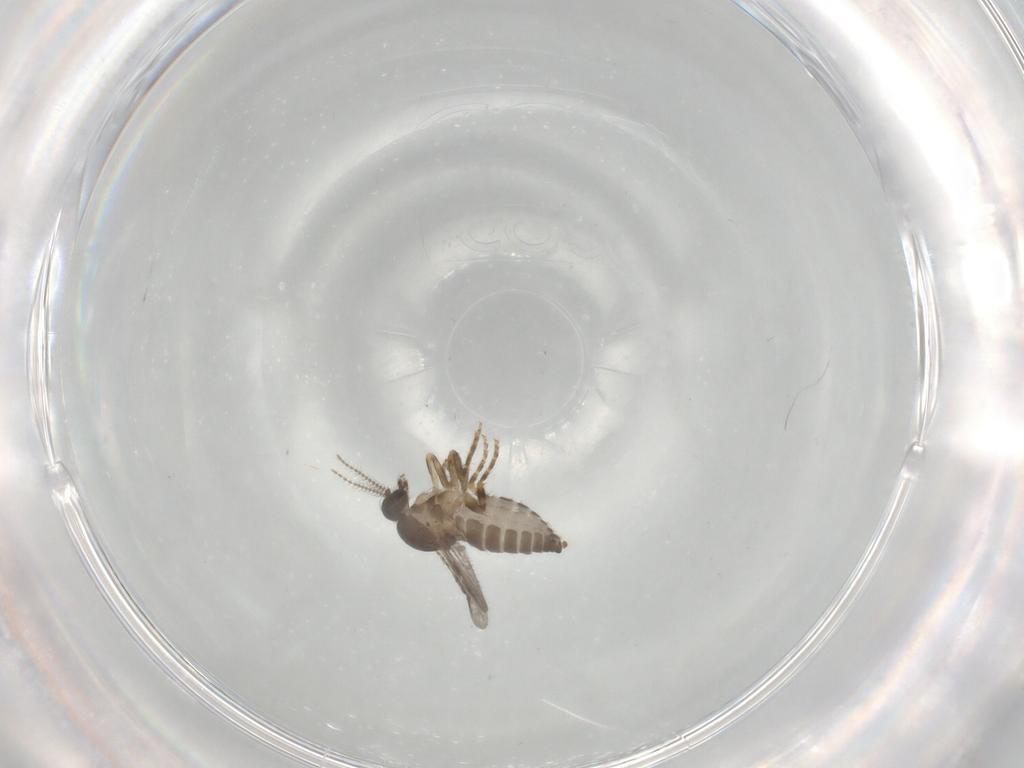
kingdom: Animalia
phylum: Arthropoda
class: Insecta
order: Diptera
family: Ceratopogonidae
